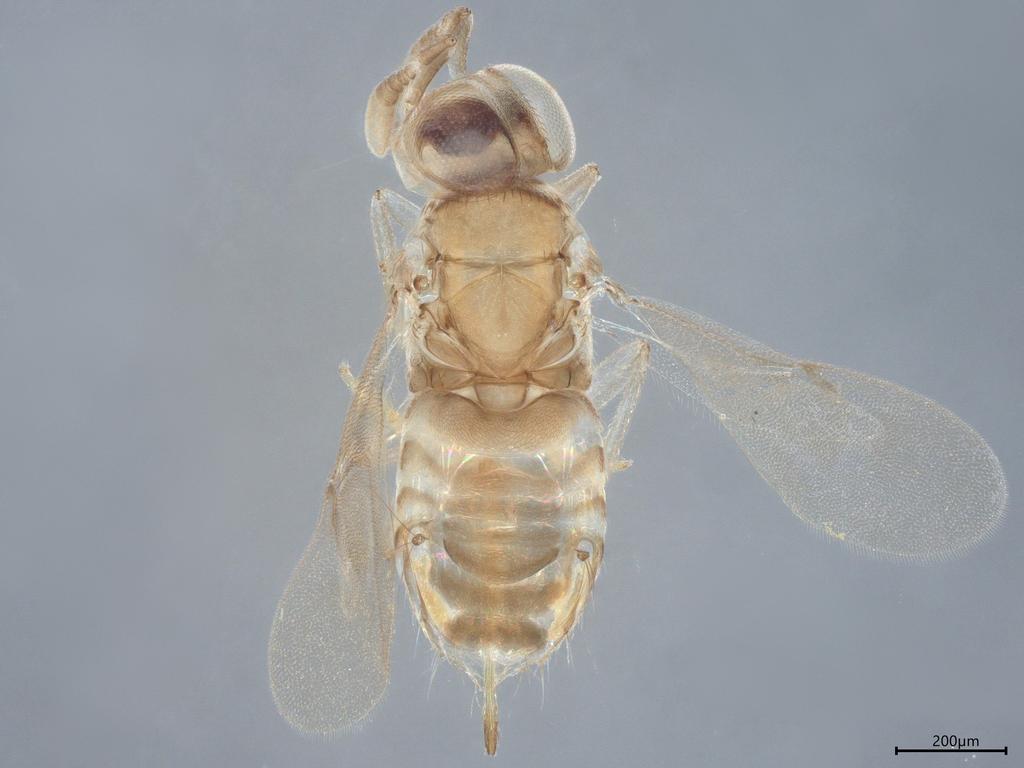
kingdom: Animalia
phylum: Arthropoda
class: Insecta
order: Hymenoptera
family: Encyrtidae
